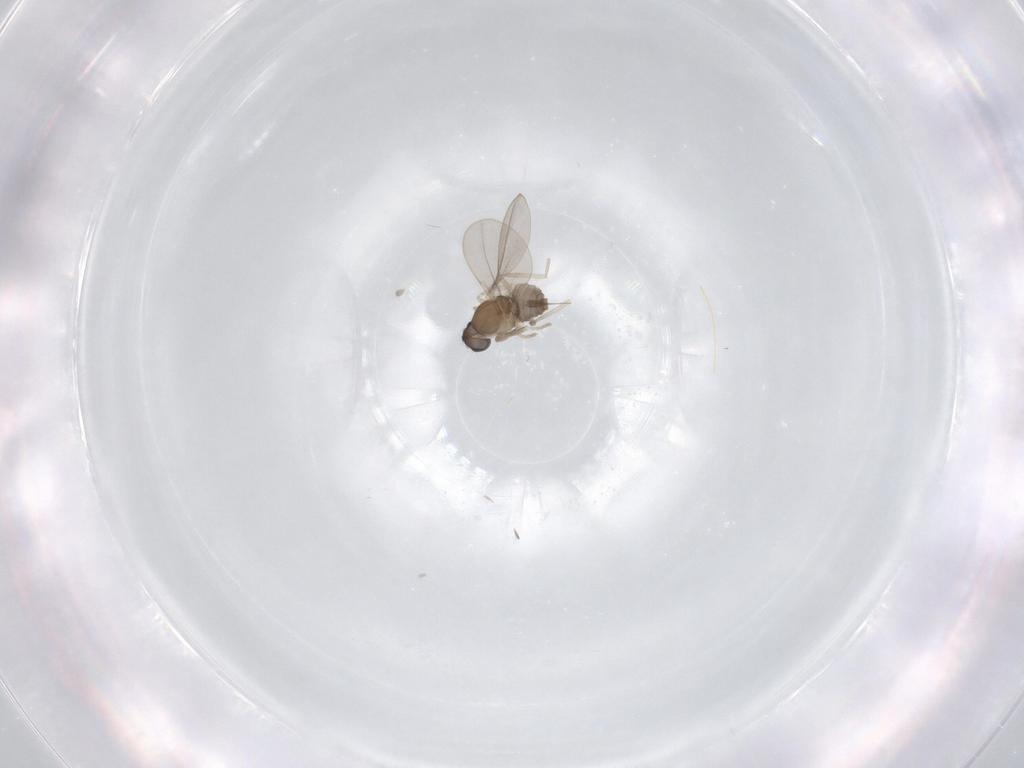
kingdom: Animalia
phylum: Arthropoda
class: Insecta
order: Diptera
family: Cecidomyiidae
